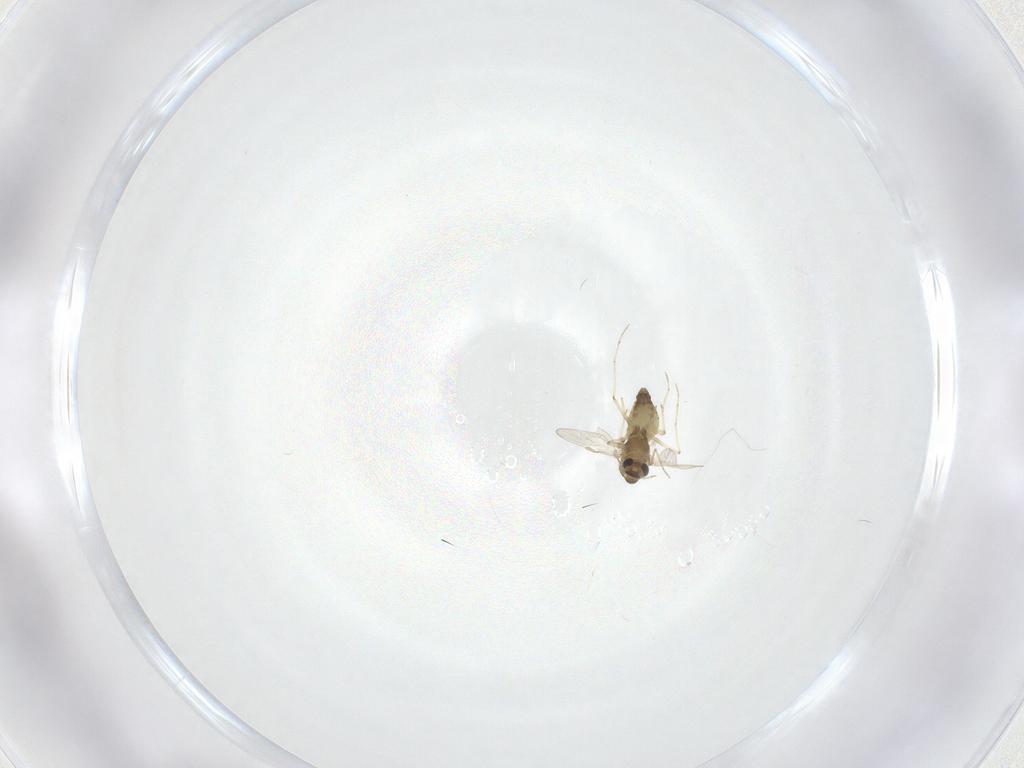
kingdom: Animalia
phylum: Arthropoda
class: Insecta
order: Diptera
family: Chironomidae
